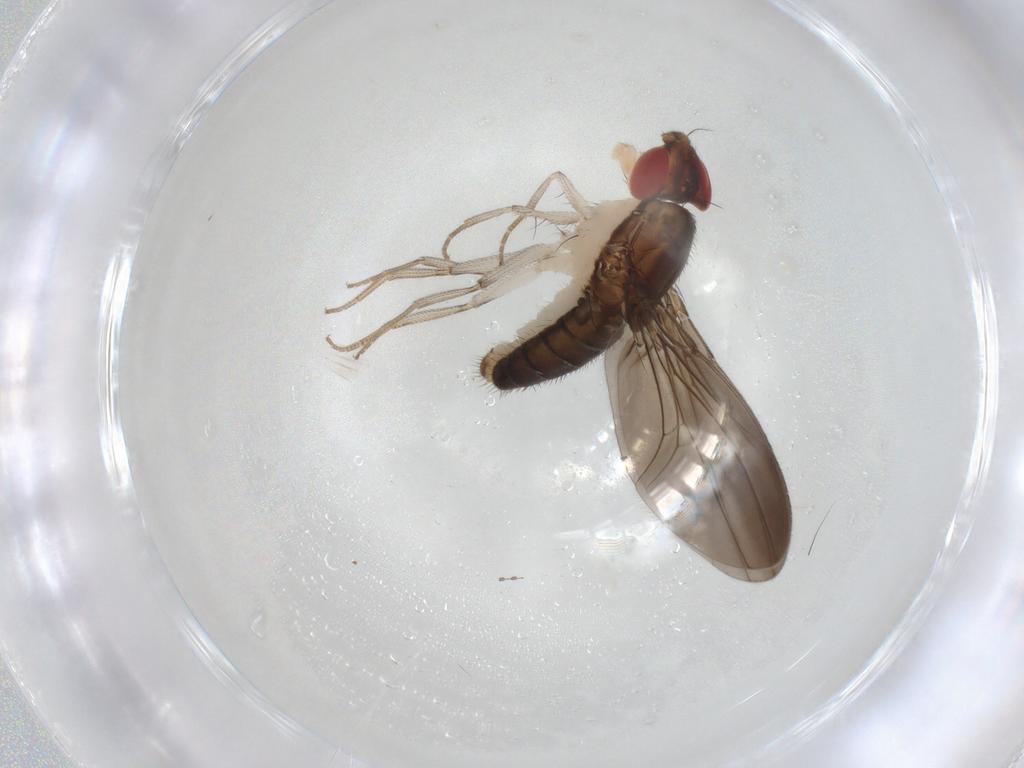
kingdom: Animalia
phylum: Arthropoda
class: Insecta
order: Diptera
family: Drosophilidae
